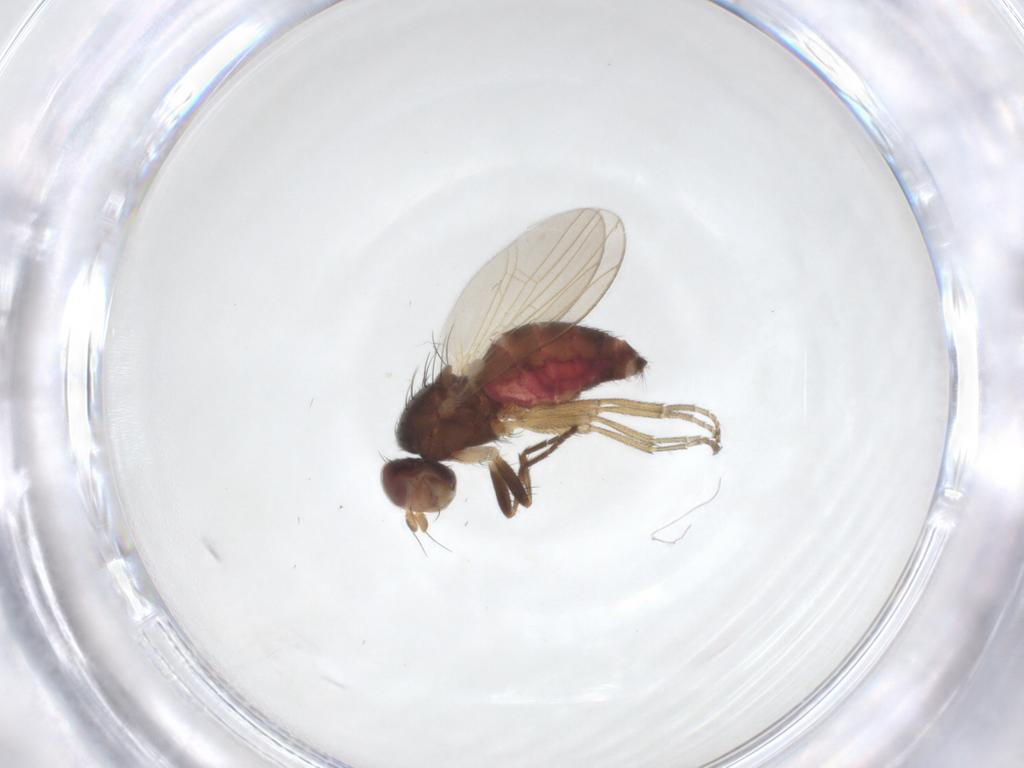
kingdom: Animalia
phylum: Arthropoda
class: Insecta
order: Diptera
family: Heleomyzidae
